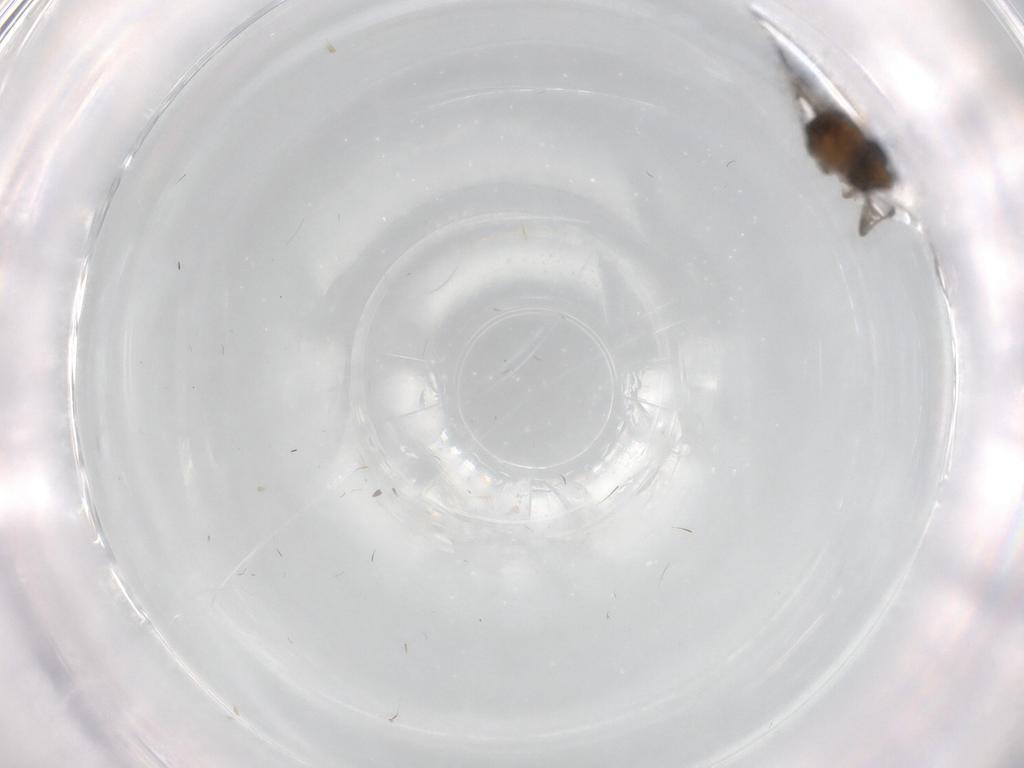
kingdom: Animalia
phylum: Arthropoda
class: Insecta
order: Diptera
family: Phoridae
